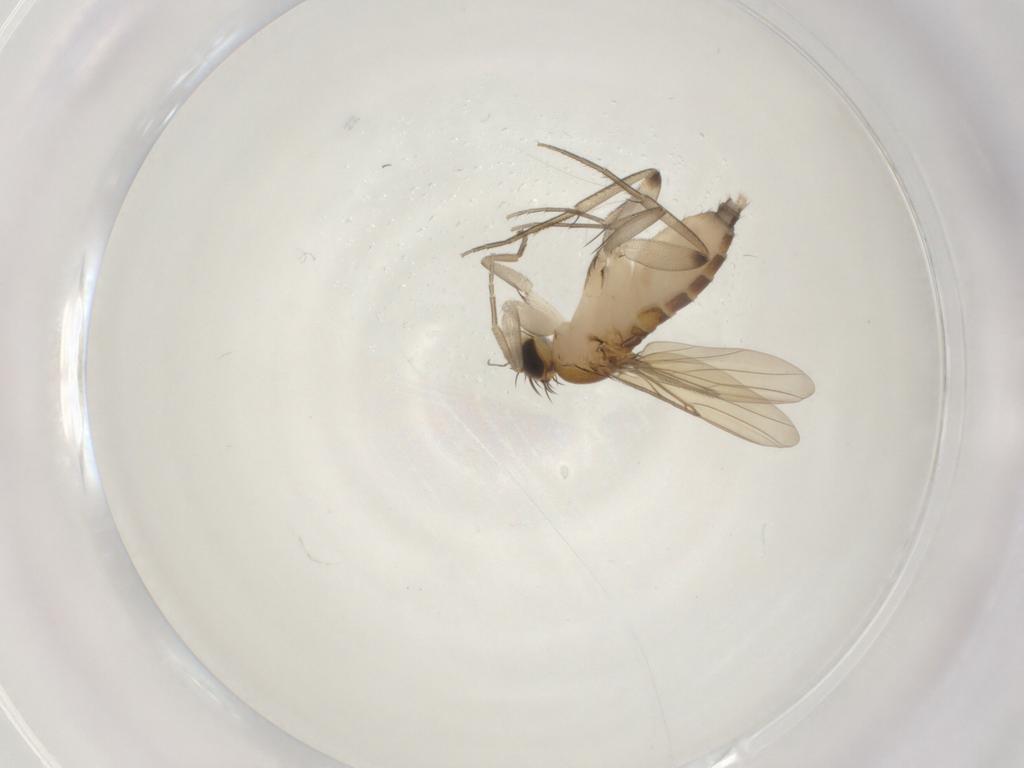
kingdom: Animalia
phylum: Arthropoda
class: Insecta
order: Diptera
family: Phoridae
